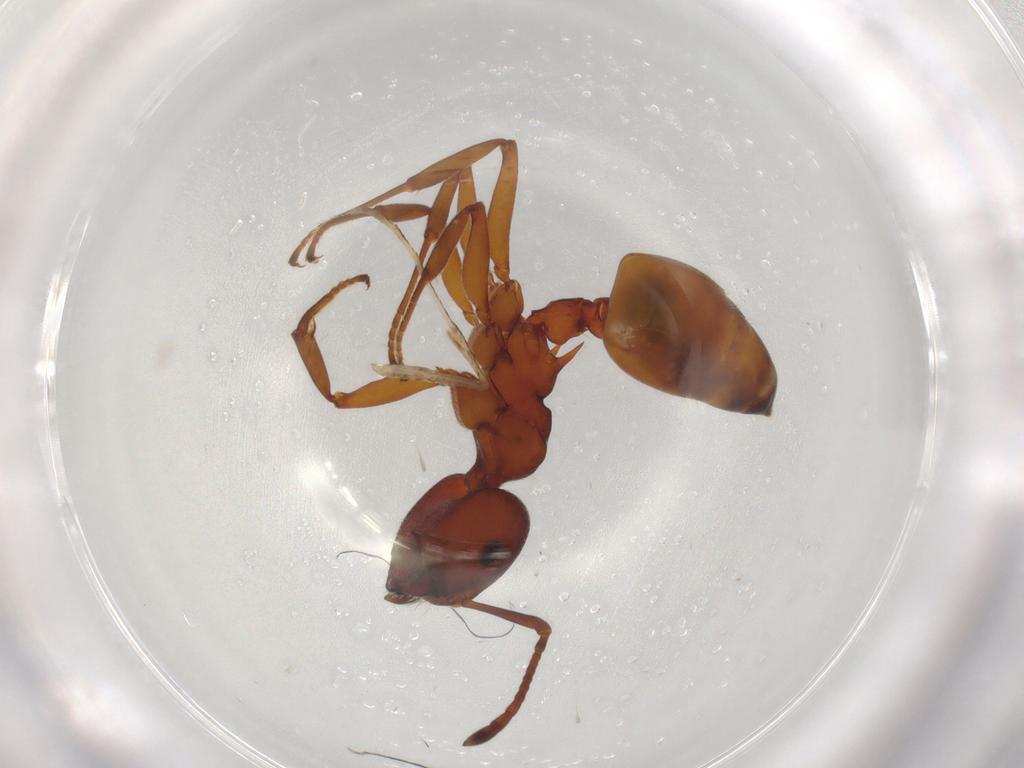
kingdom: Animalia
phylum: Arthropoda
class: Insecta
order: Hymenoptera
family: Formicidae
